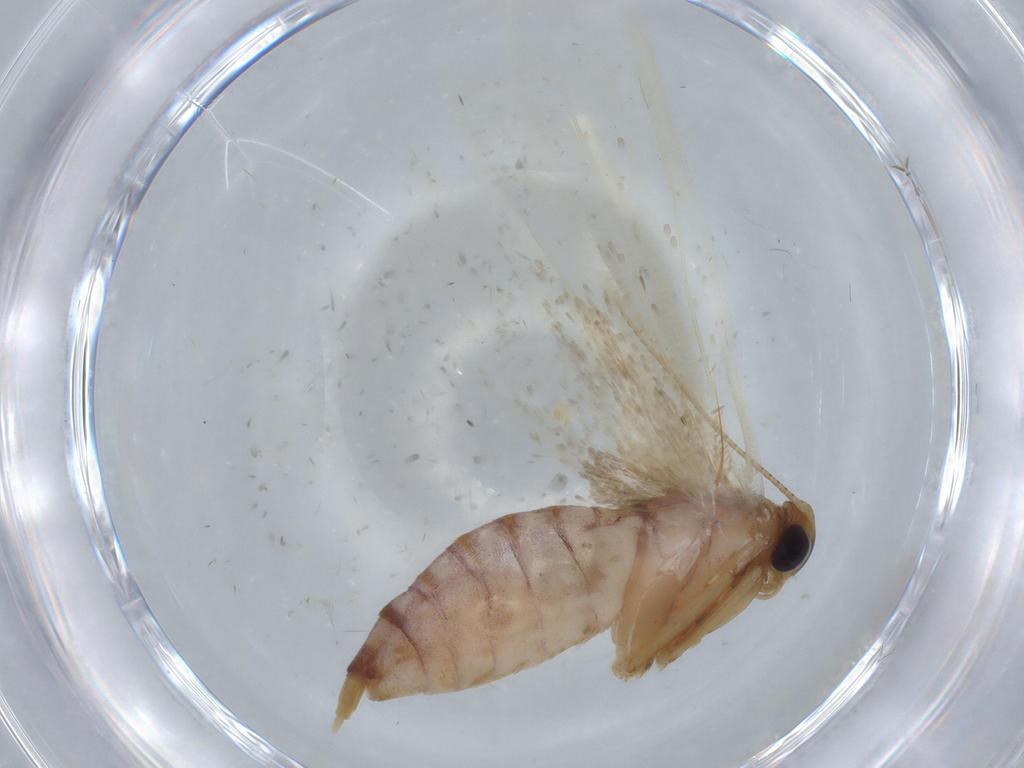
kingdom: Animalia
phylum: Arthropoda
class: Insecta
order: Lepidoptera
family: Blastobasidae
